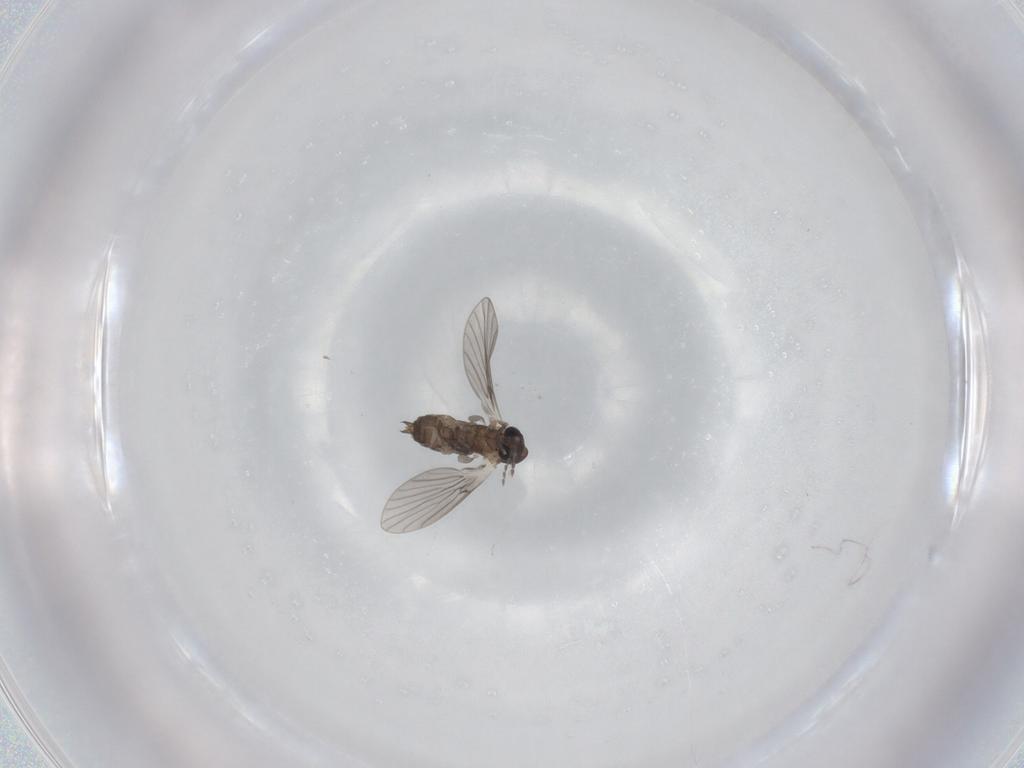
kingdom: Animalia
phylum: Arthropoda
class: Insecta
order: Diptera
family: Psychodidae
